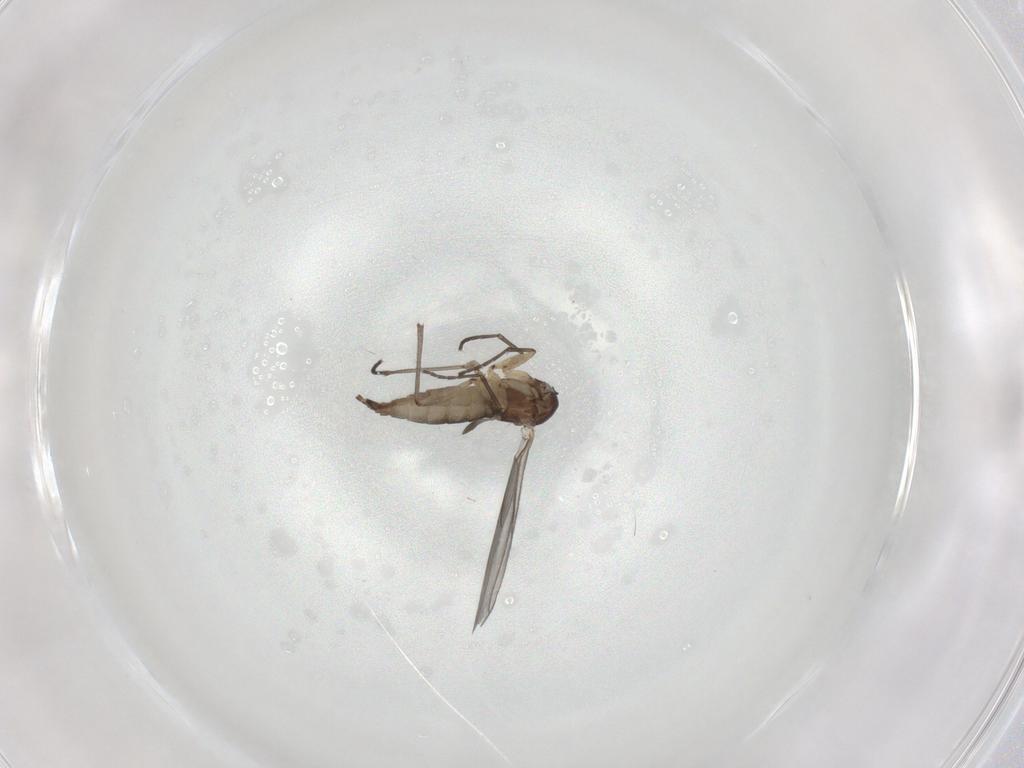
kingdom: Animalia
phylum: Arthropoda
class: Insecta
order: Diptera
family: Sciaridae
